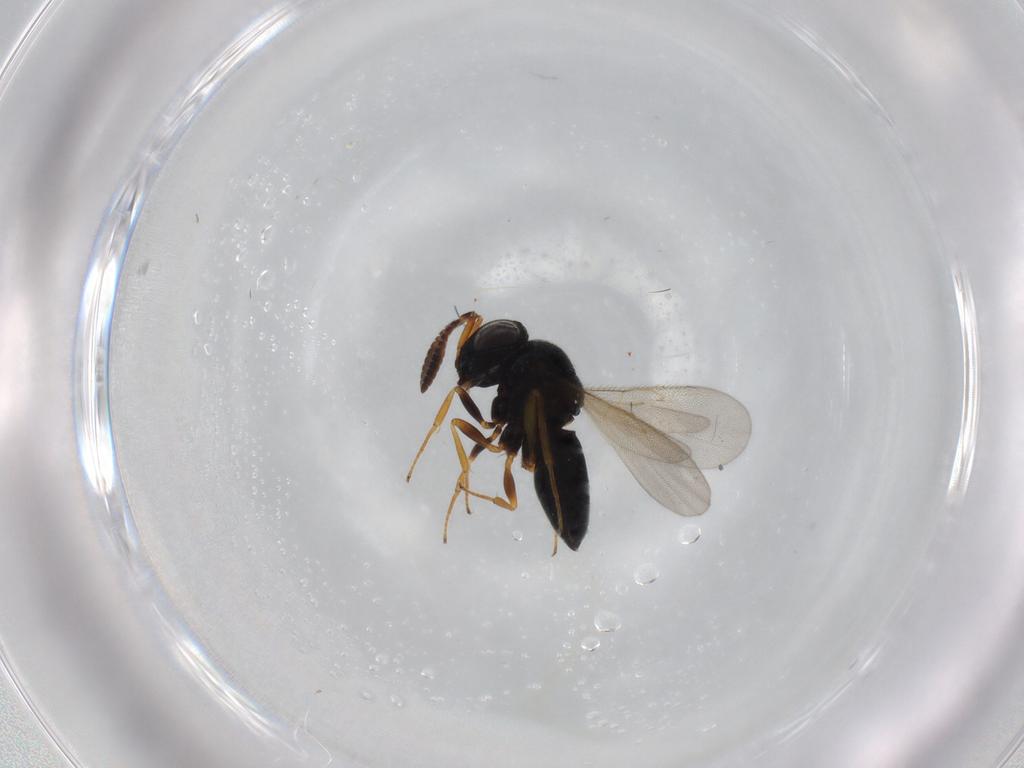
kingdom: Animalia
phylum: Arthropoda
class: Insecta
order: Hymenoptera
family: Scelionidae
